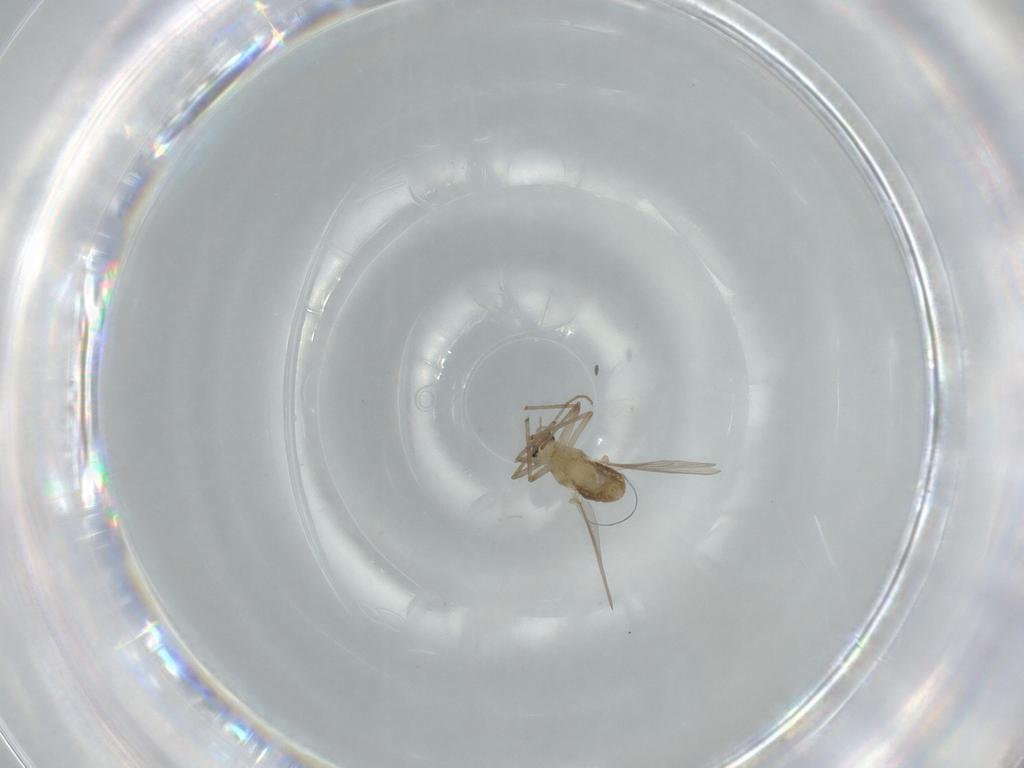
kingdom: Animalia
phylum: Arthropoda
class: Insecta
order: Diptera
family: Chironomidae
